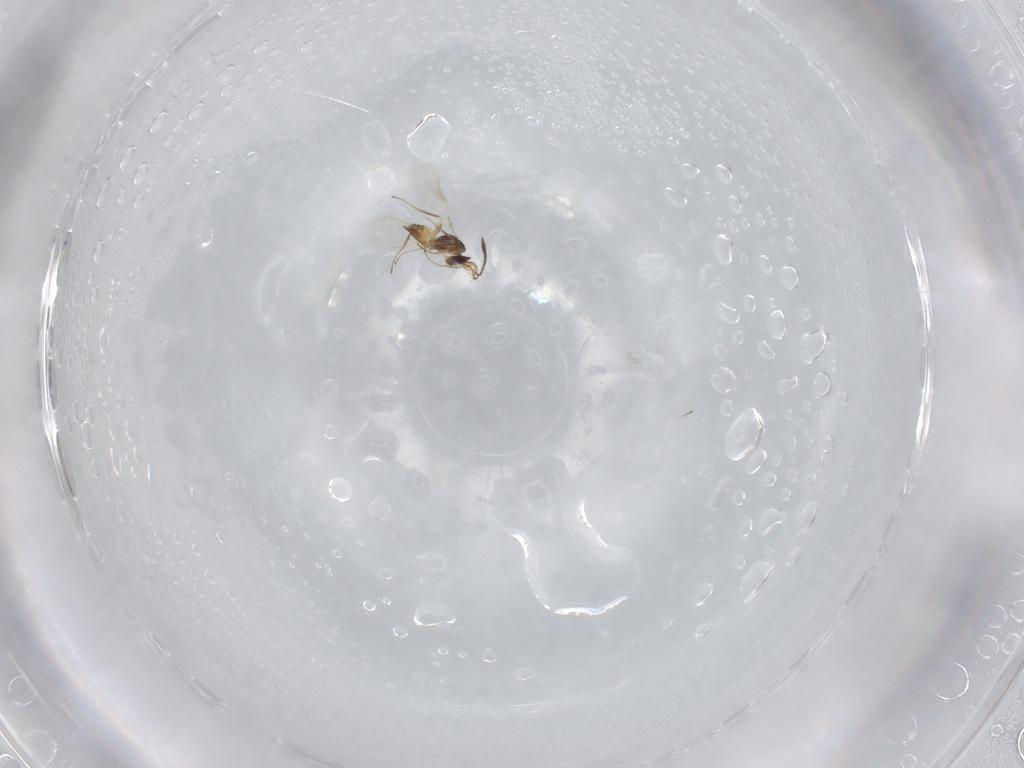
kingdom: Animalia
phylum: Arthropoda
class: Insecta
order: Hymenoptera
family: Mymaridae
